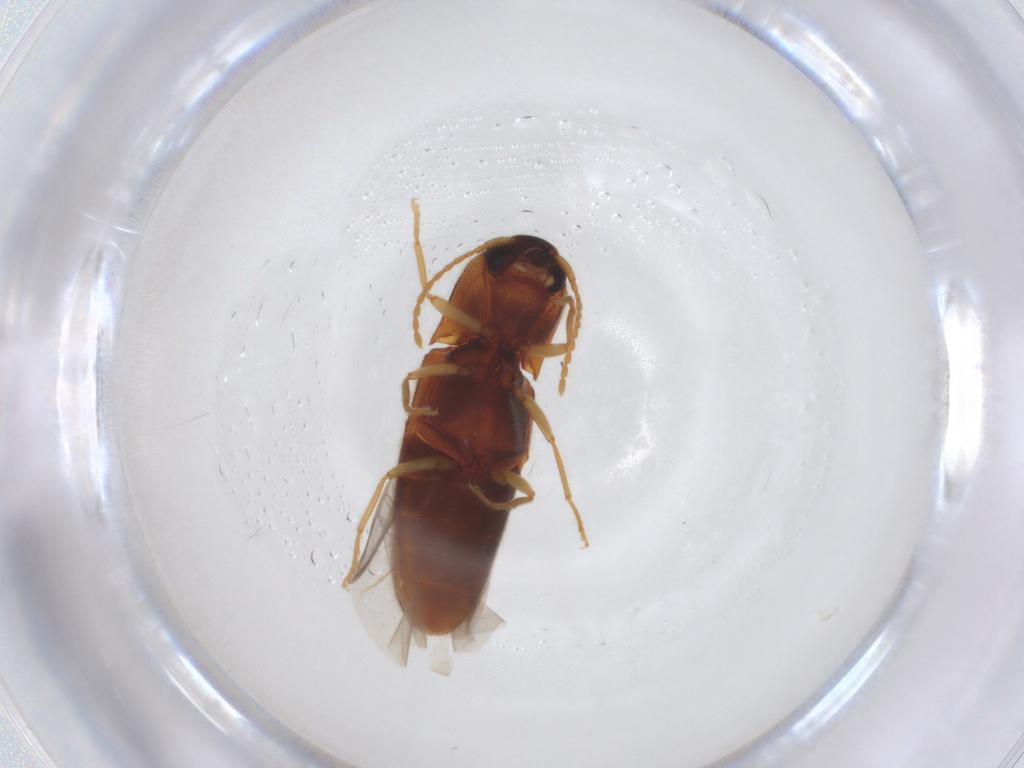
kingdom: Animalia
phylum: Arthropoda
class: Insecta
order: Coleoptera
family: Elateridae
